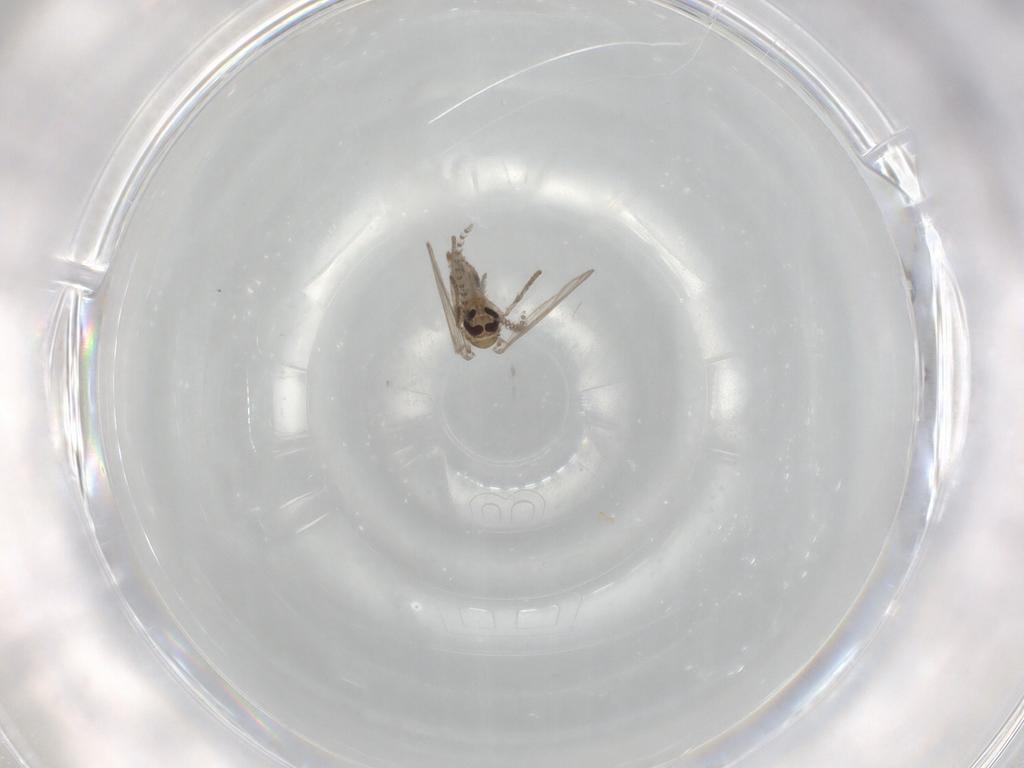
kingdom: Animalia
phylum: Arthropoda
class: Insecta
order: Diptera
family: Psychodidae
